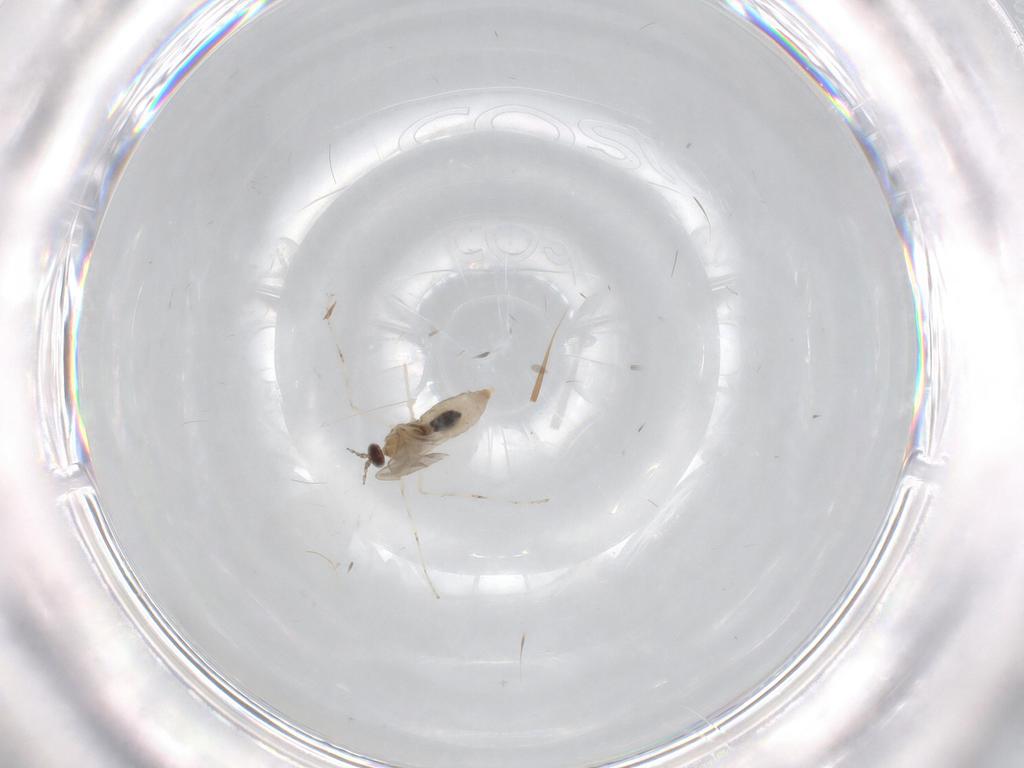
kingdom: Animalia
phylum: Arthropoda
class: Insecta
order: Diptera
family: Cecidomyiidae
